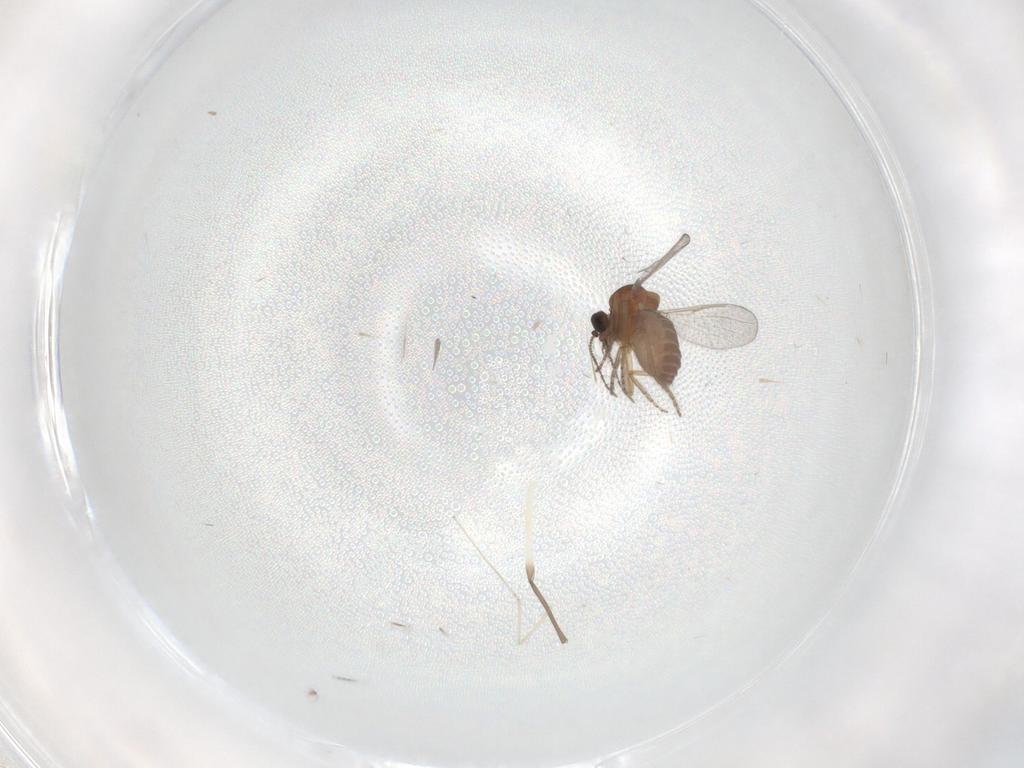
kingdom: Animalia
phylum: Arthropoda
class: Insecta
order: Diptera
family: Ceratopogonidae
